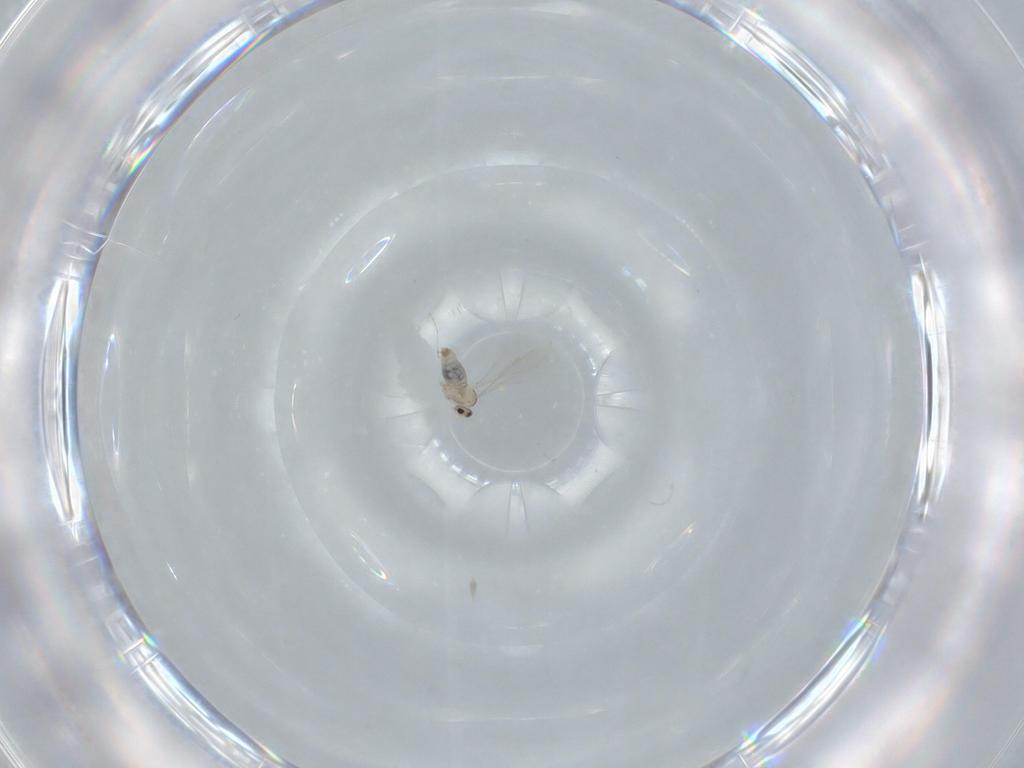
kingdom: Animalia
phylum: Arthropoda
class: Insecta
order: Diptera
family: Cecidomyiidae
